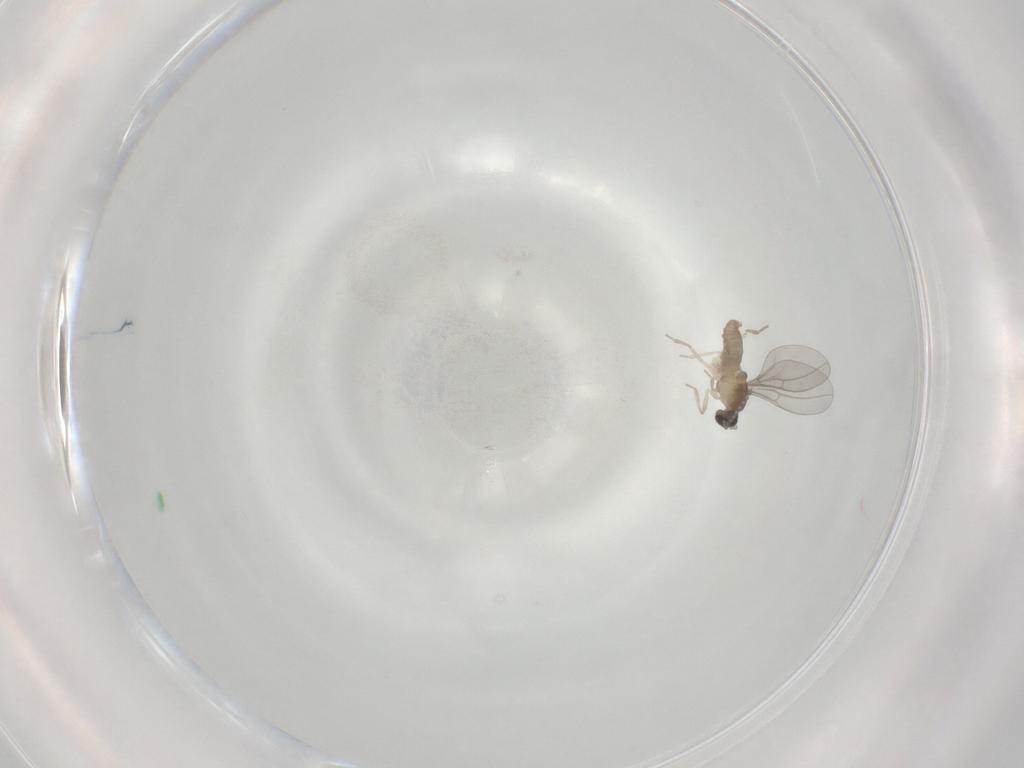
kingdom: Animalia
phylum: Arthropoda
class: Insecta
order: Diptera
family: Cecidomyiidae
